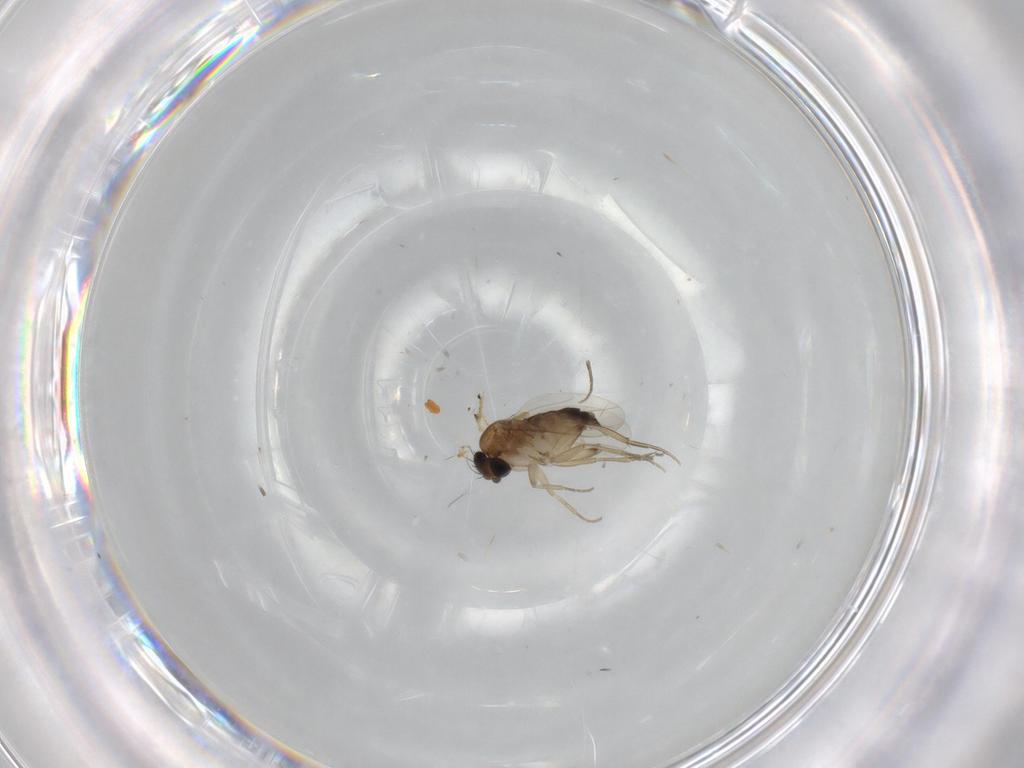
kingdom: Animalia
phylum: Arthropoda
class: Insecta
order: Diptera
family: Phoridae
